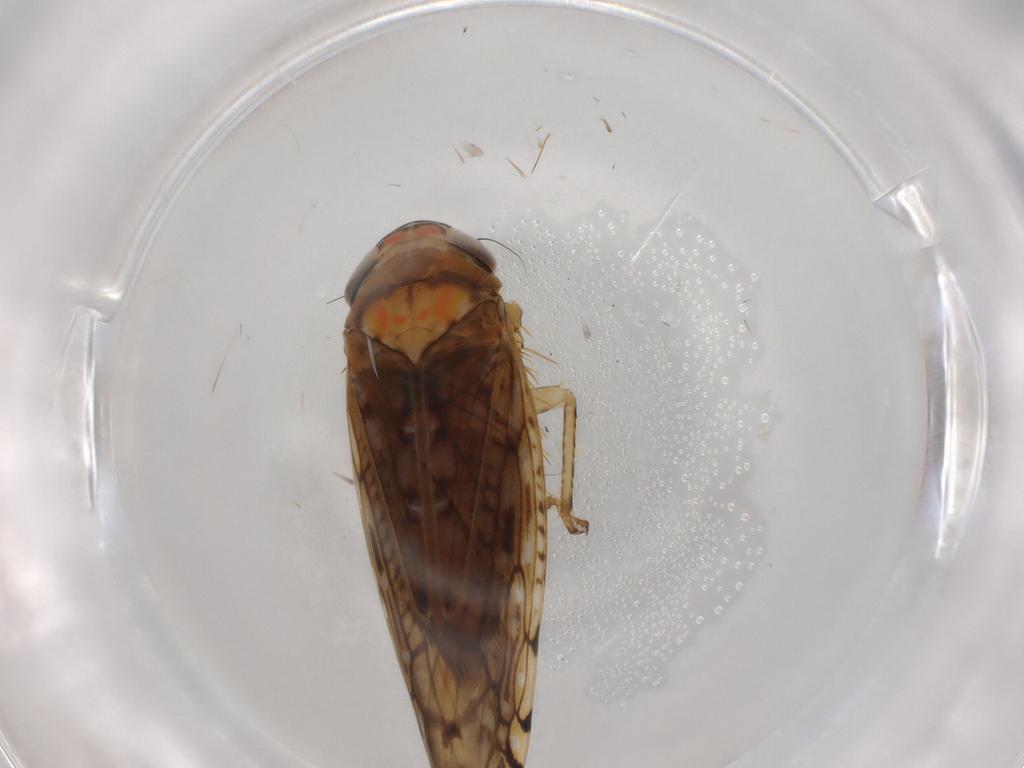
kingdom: Animalia
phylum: Arthropoda
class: Insecta
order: Hemiptera
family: Cicadellidae
